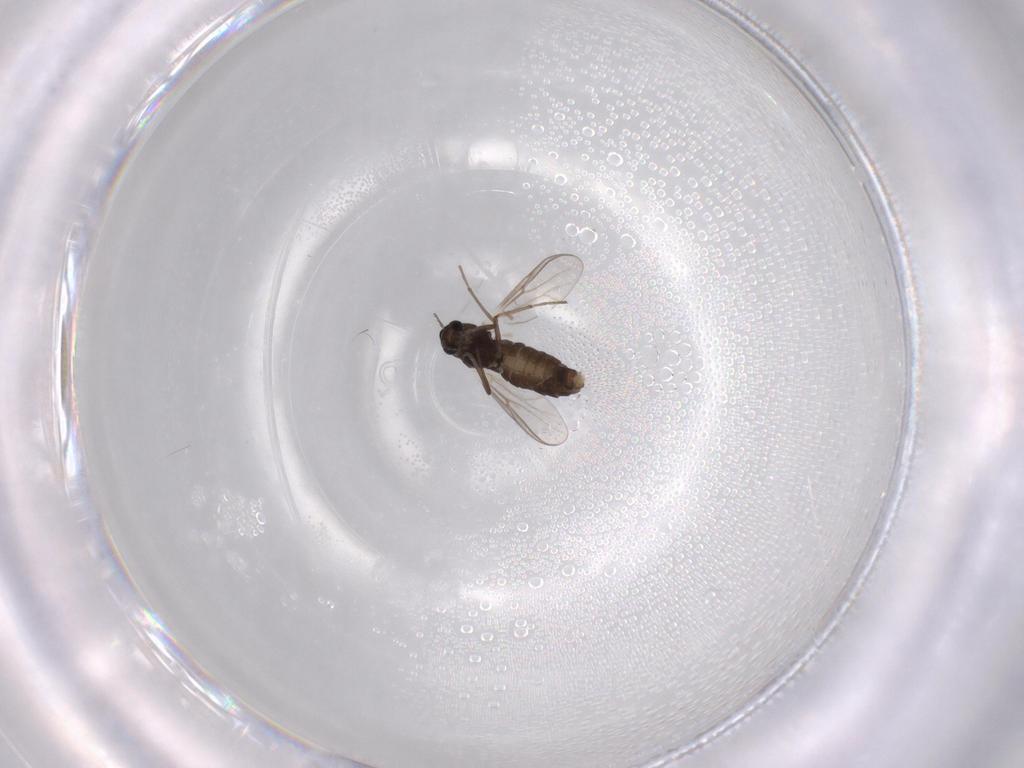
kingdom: Animalia
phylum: Arthropoda
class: Insecta
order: Diptera
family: Chironomidae
